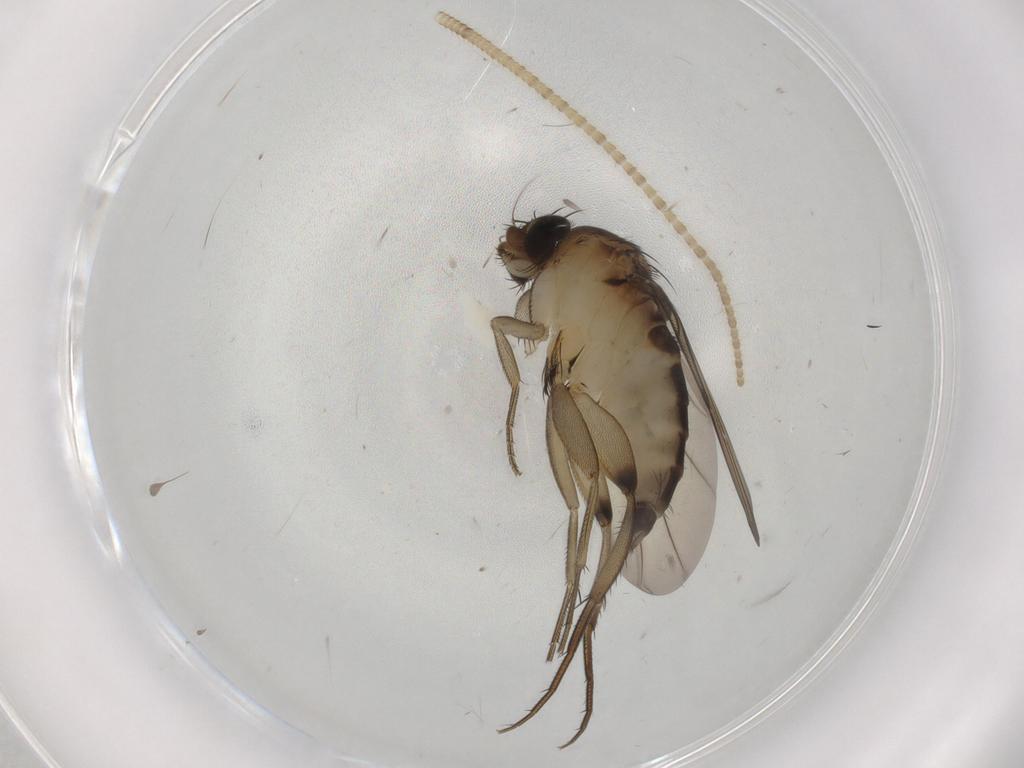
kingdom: Animalia
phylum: Arthropoda
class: Insecta
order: Diptera
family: Phoridae
